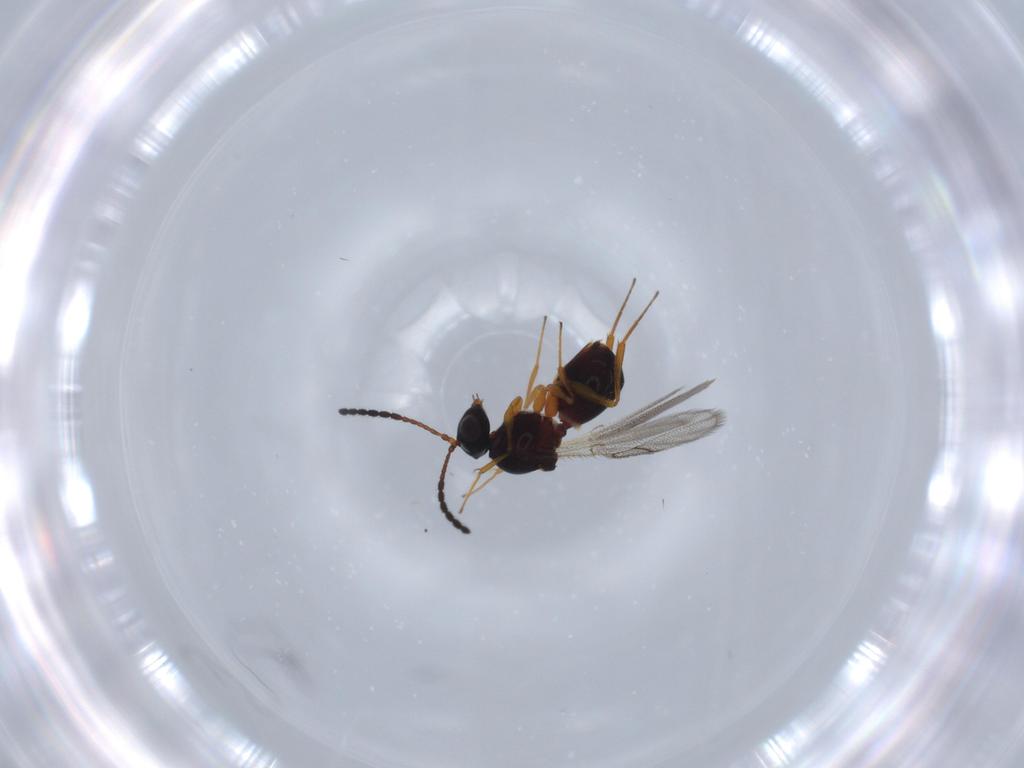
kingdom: Animalia
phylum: Arthropoda
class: Insecta
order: Hymenoptera
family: Figitidae
